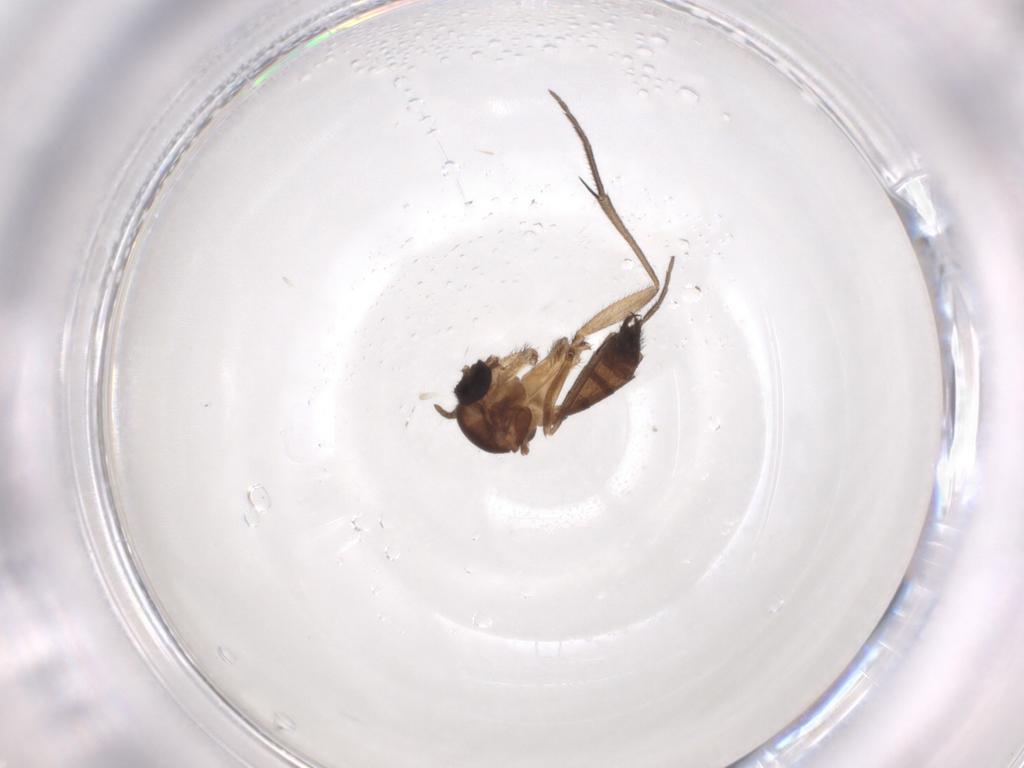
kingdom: Animalia
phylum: Arthropoda
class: Insecta
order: Diptera
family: Keroplatidae
